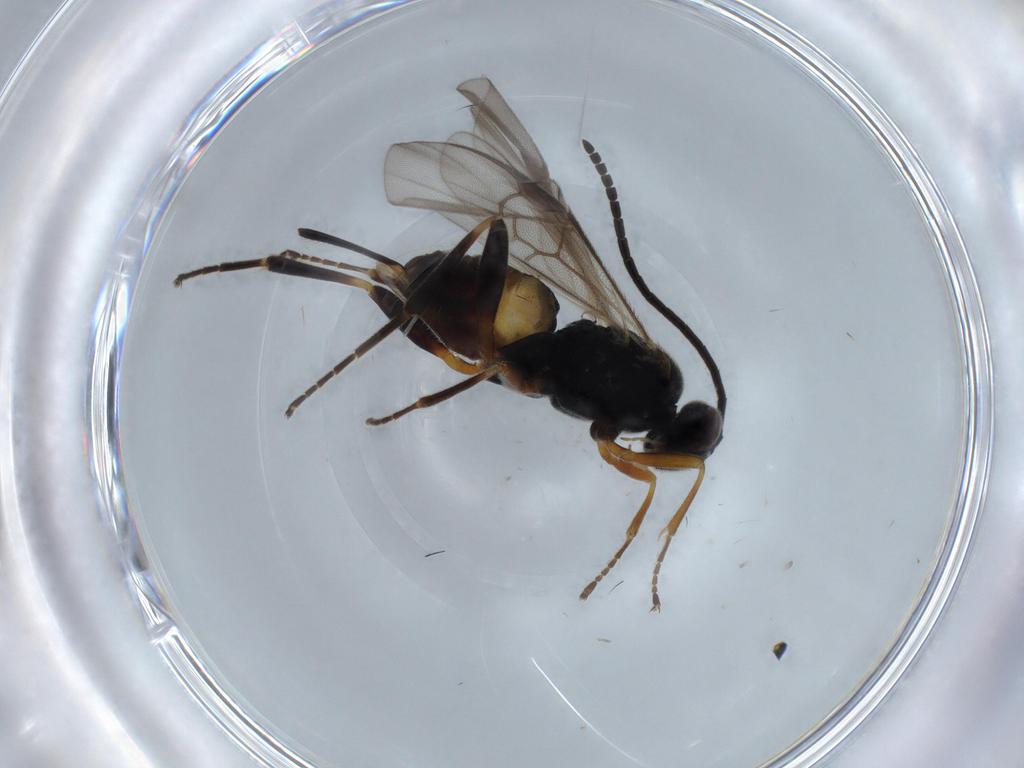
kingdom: Animalia
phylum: Arthropoda
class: Insecta
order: Hymenoptera
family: Braconidae
